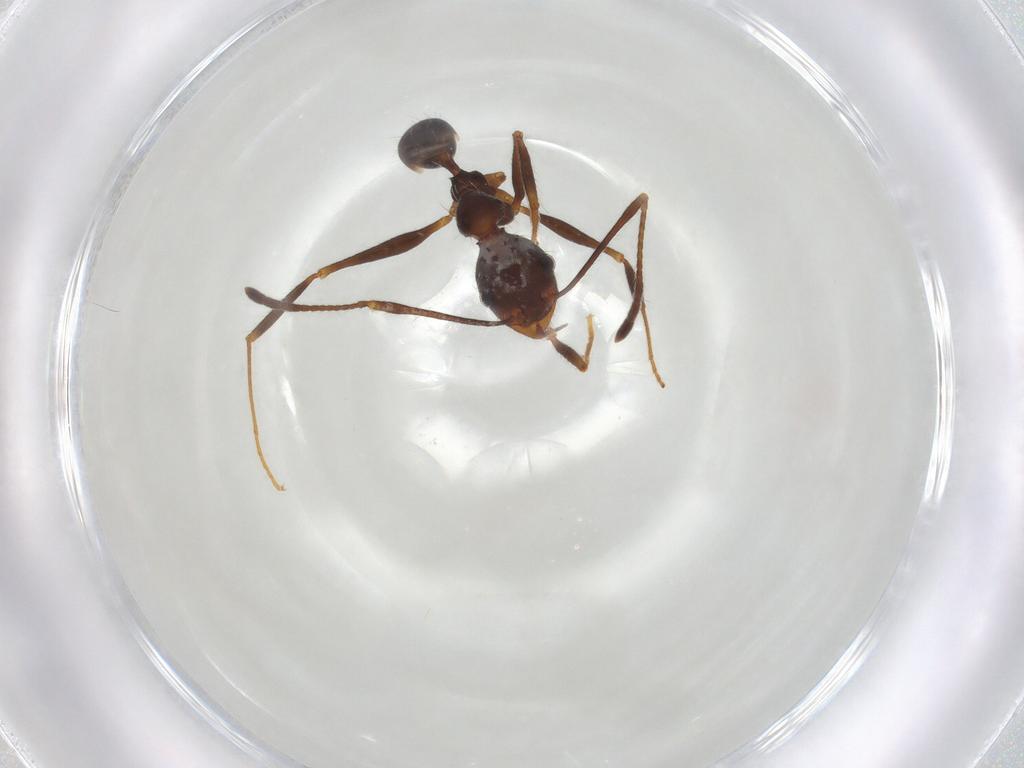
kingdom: Animalia
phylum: Arthropoda
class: Insecta
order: Hymenoptera
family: Formicidae
